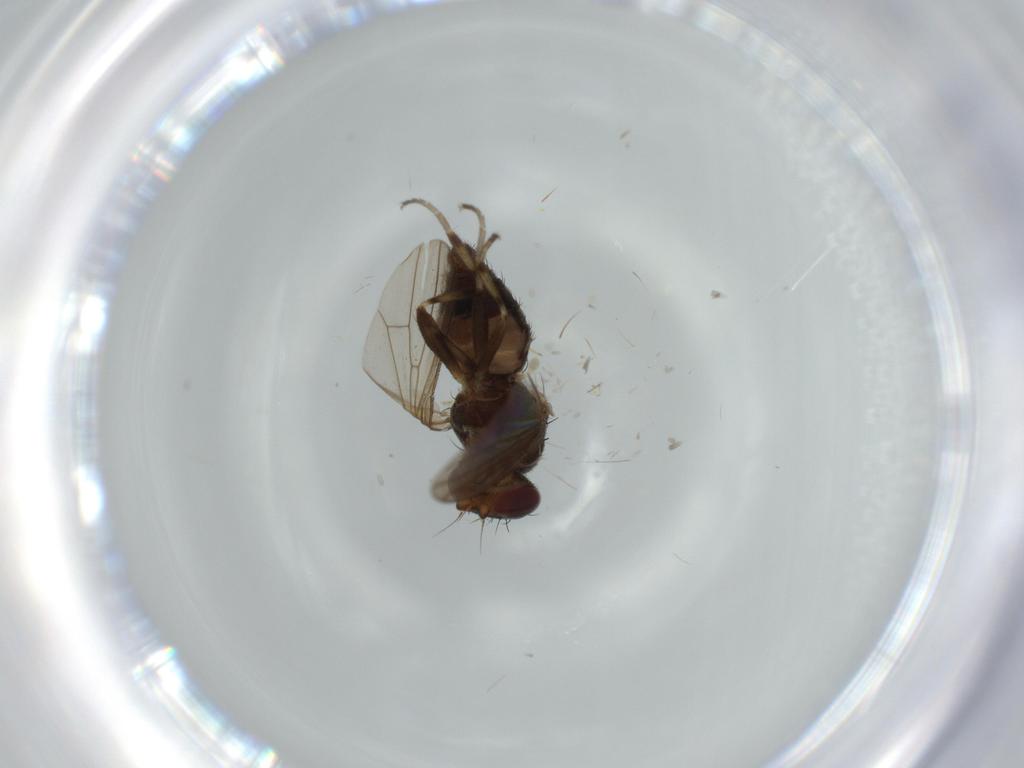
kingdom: Animalia
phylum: Arthropoda
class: Insecta
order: Diptera
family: Heleomyzidae
